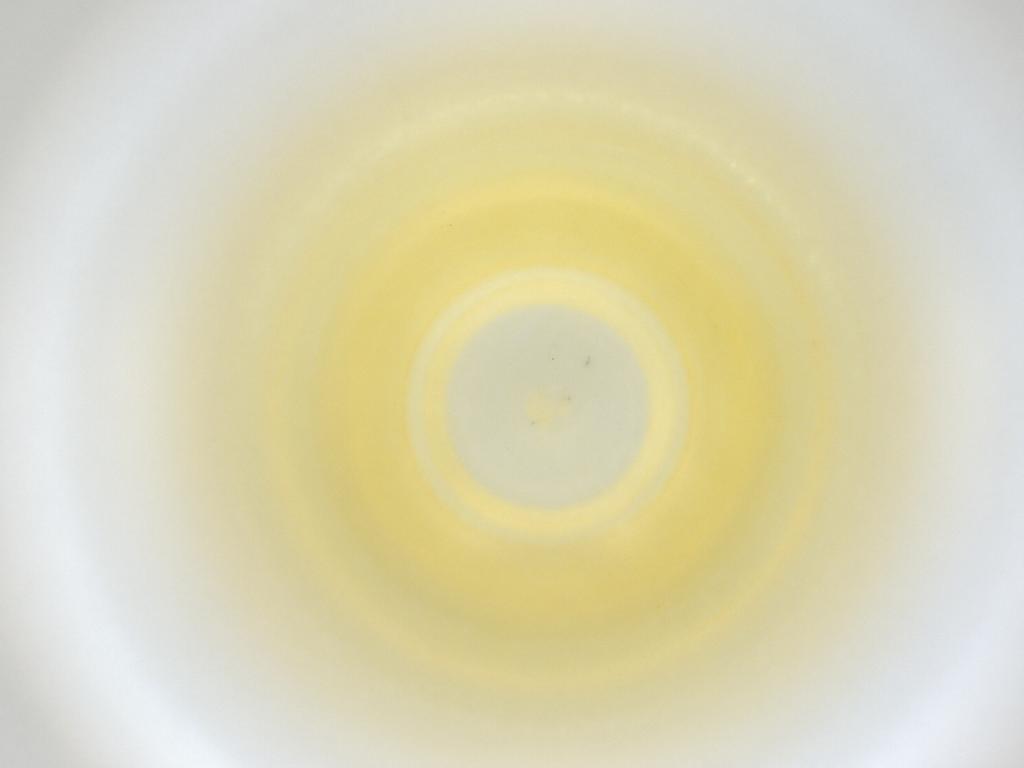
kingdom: Animalia
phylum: Arthropoda
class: Insecta
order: Diptera
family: Cecidomyiidae
